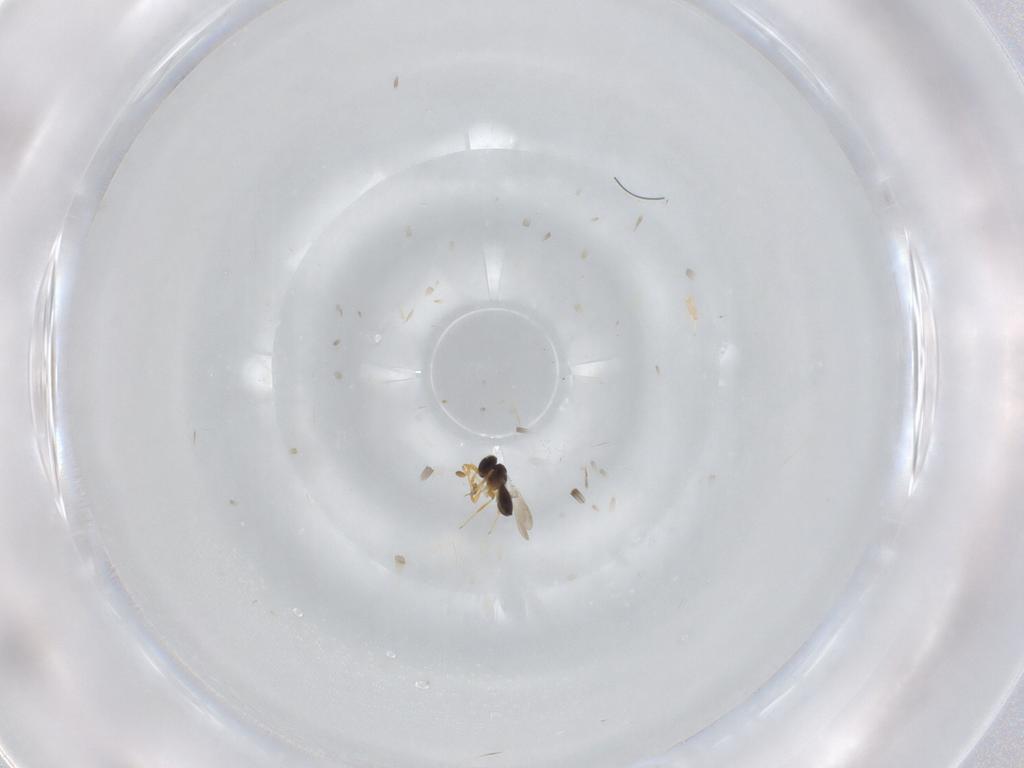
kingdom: Animalia
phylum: Arthropoda
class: Insecta
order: Hymenoptera
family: Platygastridae
